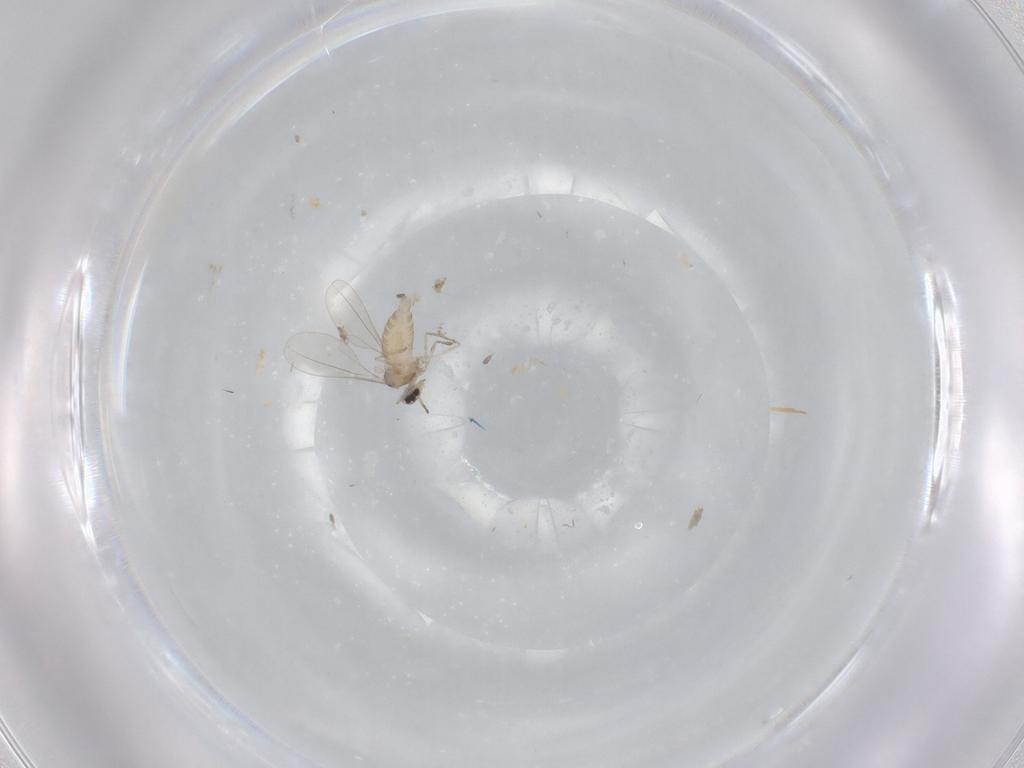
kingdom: Animalia
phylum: Arthropoda
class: Insecta
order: Diptera
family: Cecidomyiidae
